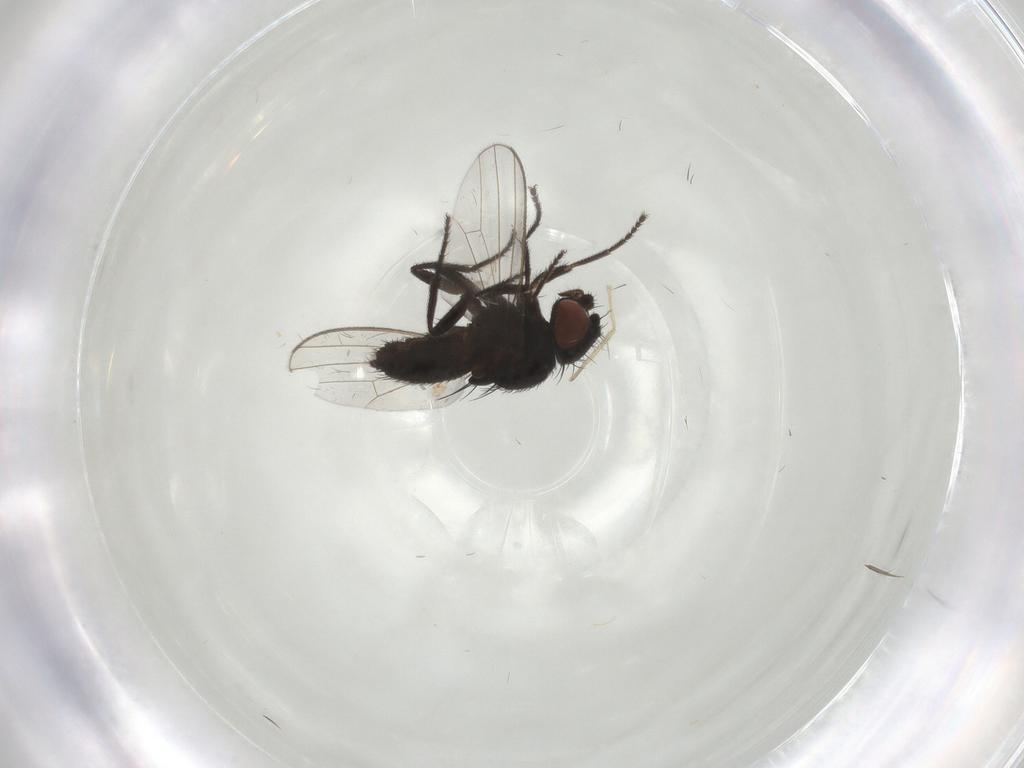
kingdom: Animalia
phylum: Arthropoda
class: Insecta
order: Diptera
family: Milichiidae
